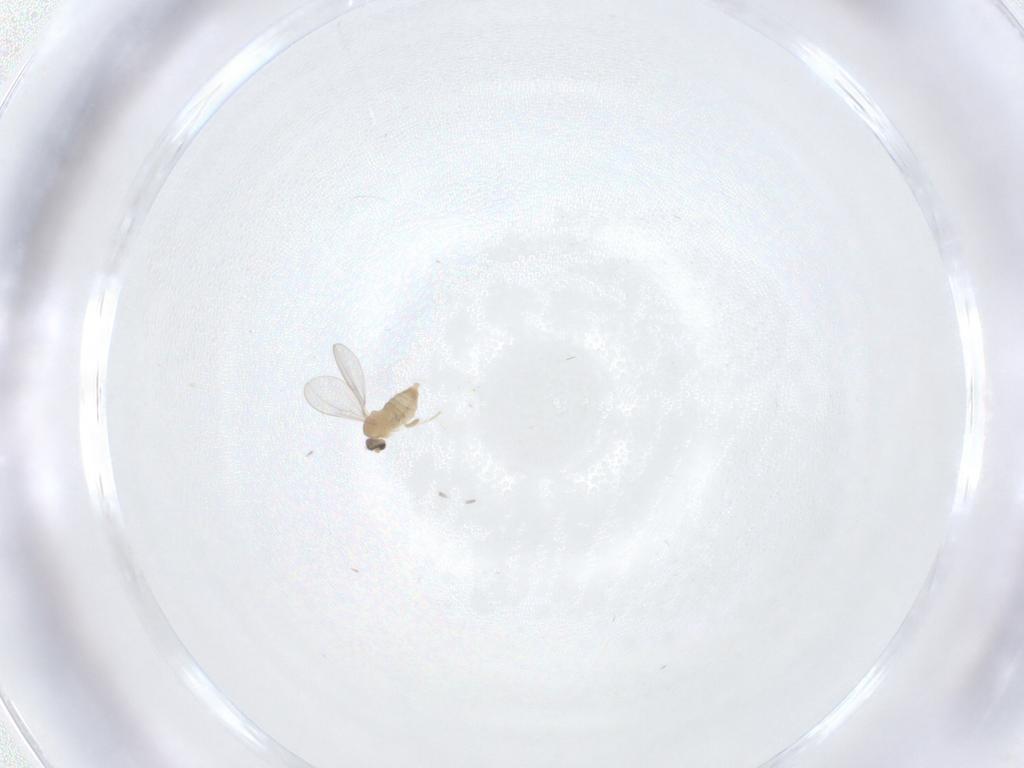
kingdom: Animalia
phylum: Arthropoda
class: Insecta
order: Diptera
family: Cecidomyiidae
